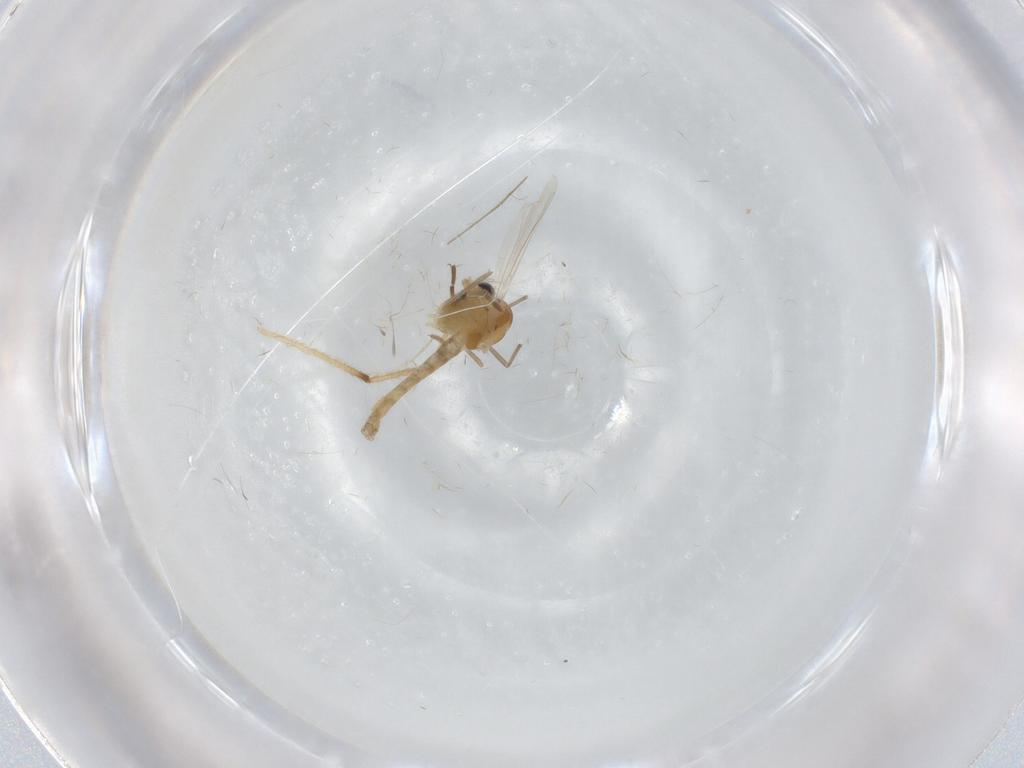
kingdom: Animalia
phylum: Arthropoda
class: Insecta
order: Diptera
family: Chironomidae
